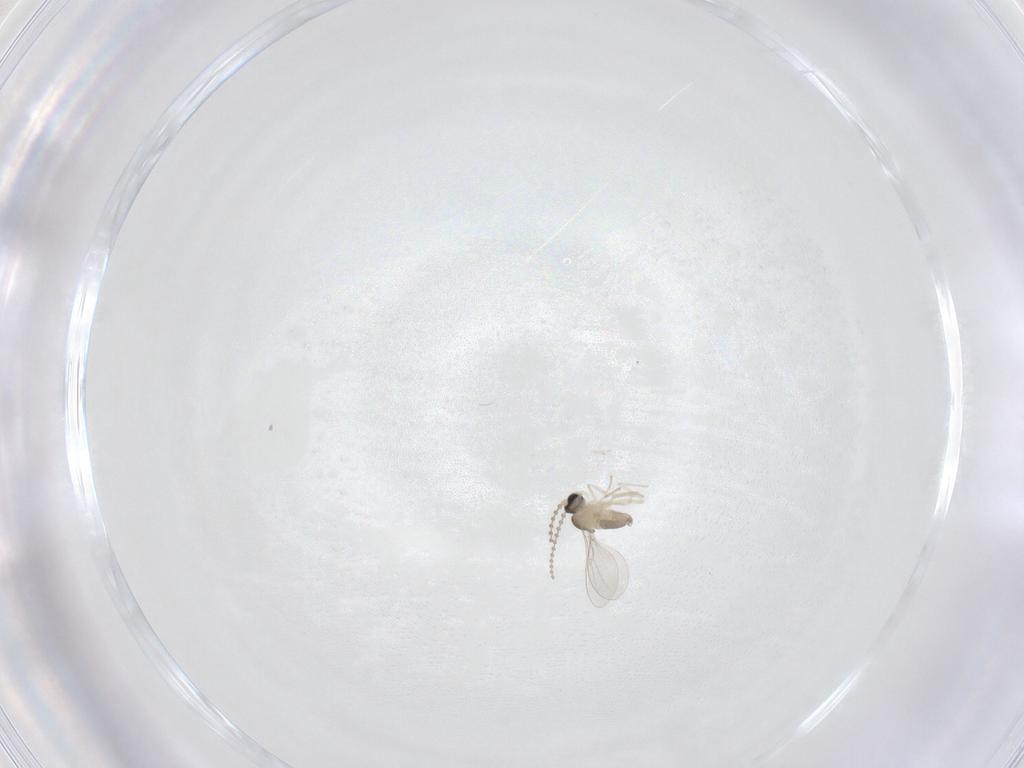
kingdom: Animalia
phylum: Arthropoda
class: Insecta
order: Diptera
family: Cecidomyiidae
